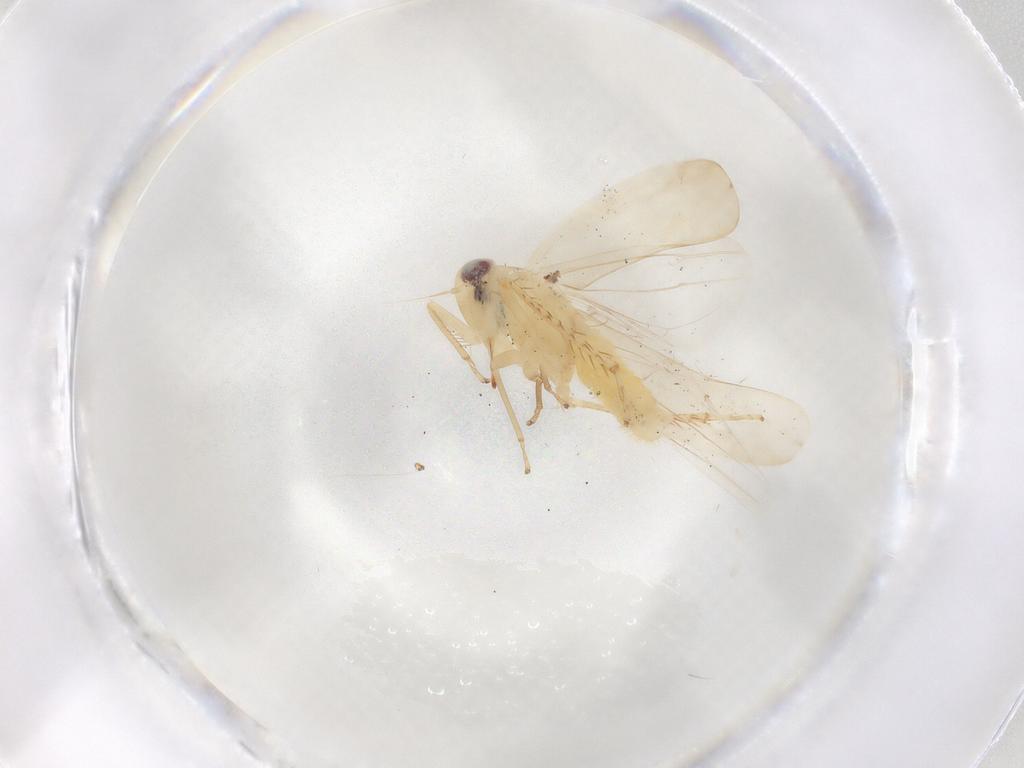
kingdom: Animalia
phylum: Arthropoda
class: Insecta
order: Hemiptera
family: Cicadellidae
